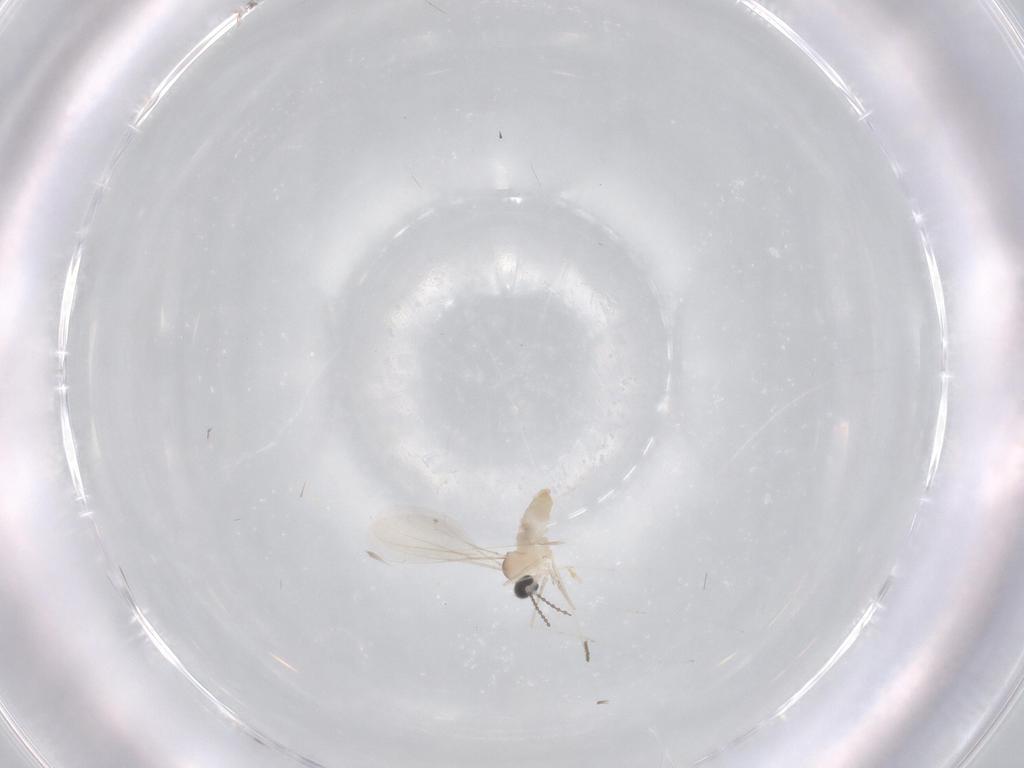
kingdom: Animalia
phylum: Arthropoda
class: Insecta
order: Diptera
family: Cecidomyiidae
